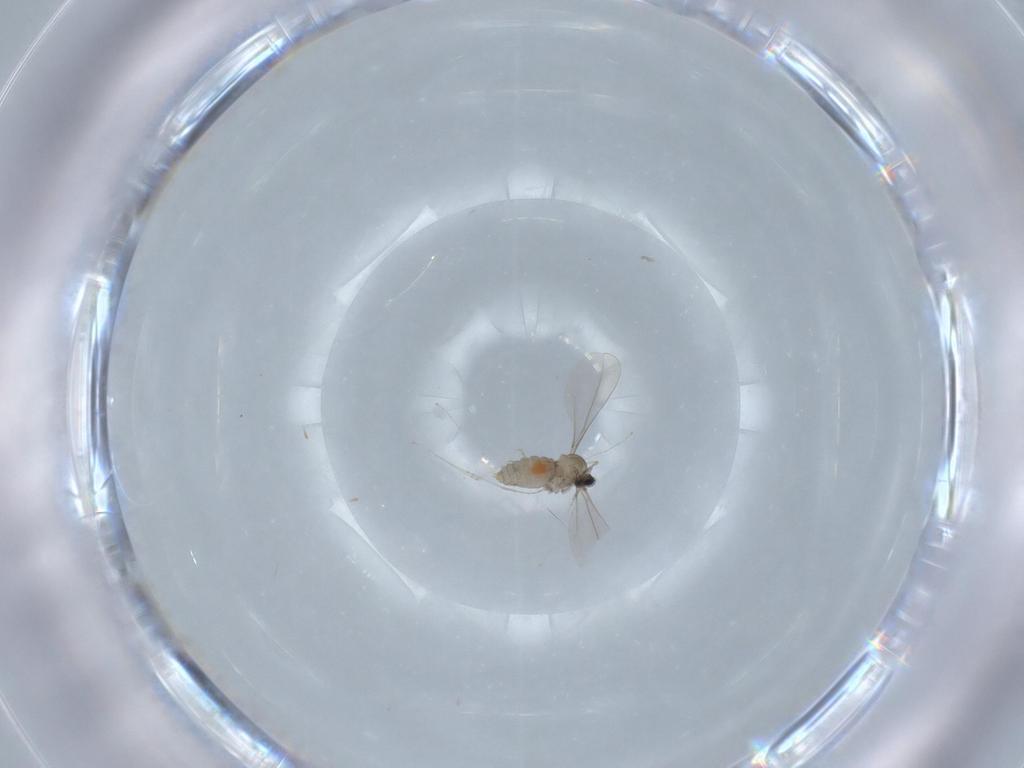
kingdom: Animalia
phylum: Arthropoda
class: Insecta
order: Diptera
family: Cecidomyiidae
